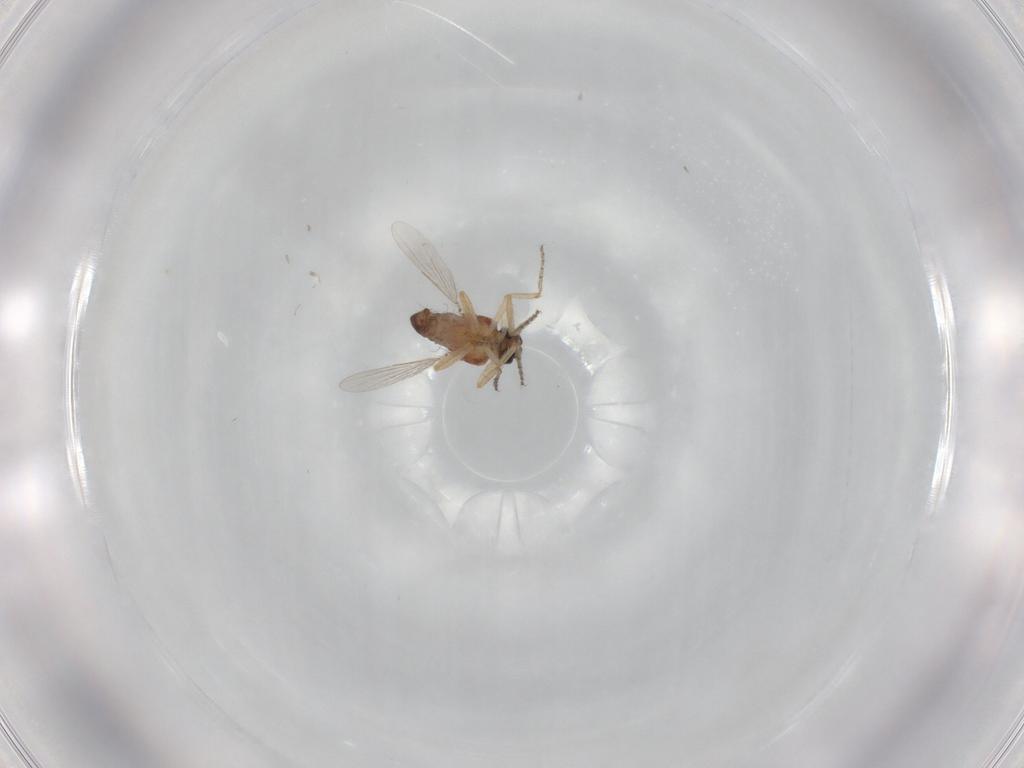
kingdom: Animalia
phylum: Arthropoda
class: Insecta
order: Diptera
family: Ceratopogonidae
